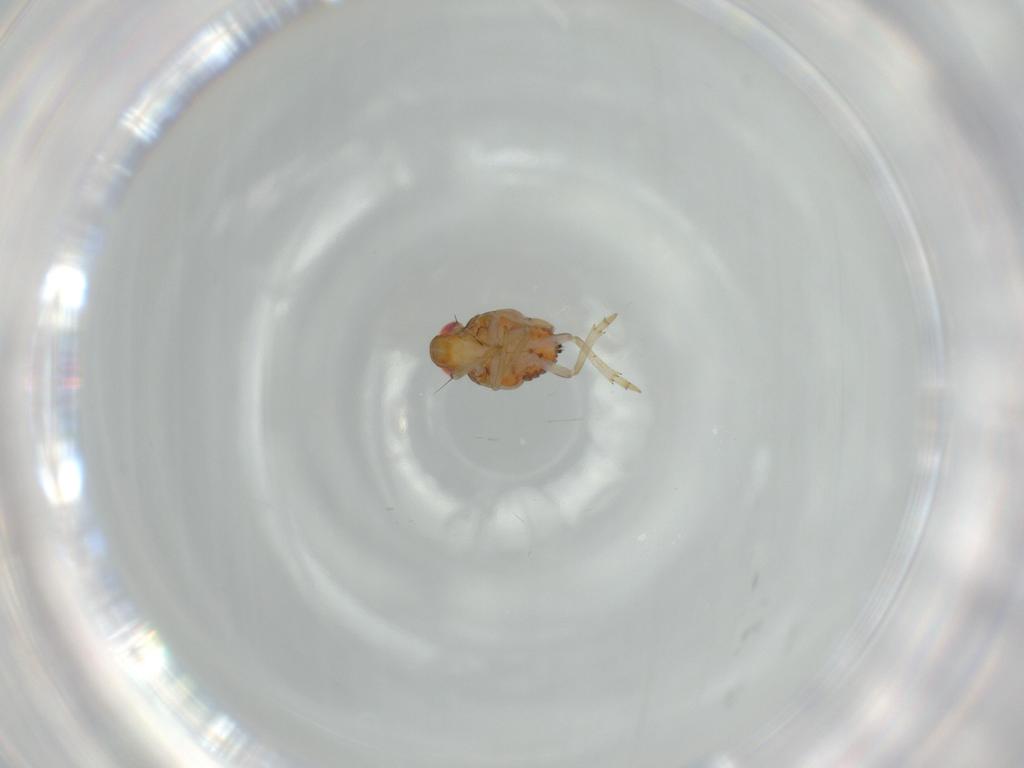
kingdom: Animalia
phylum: Arthropoda
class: Insecta
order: Hemiptera
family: Issidae
